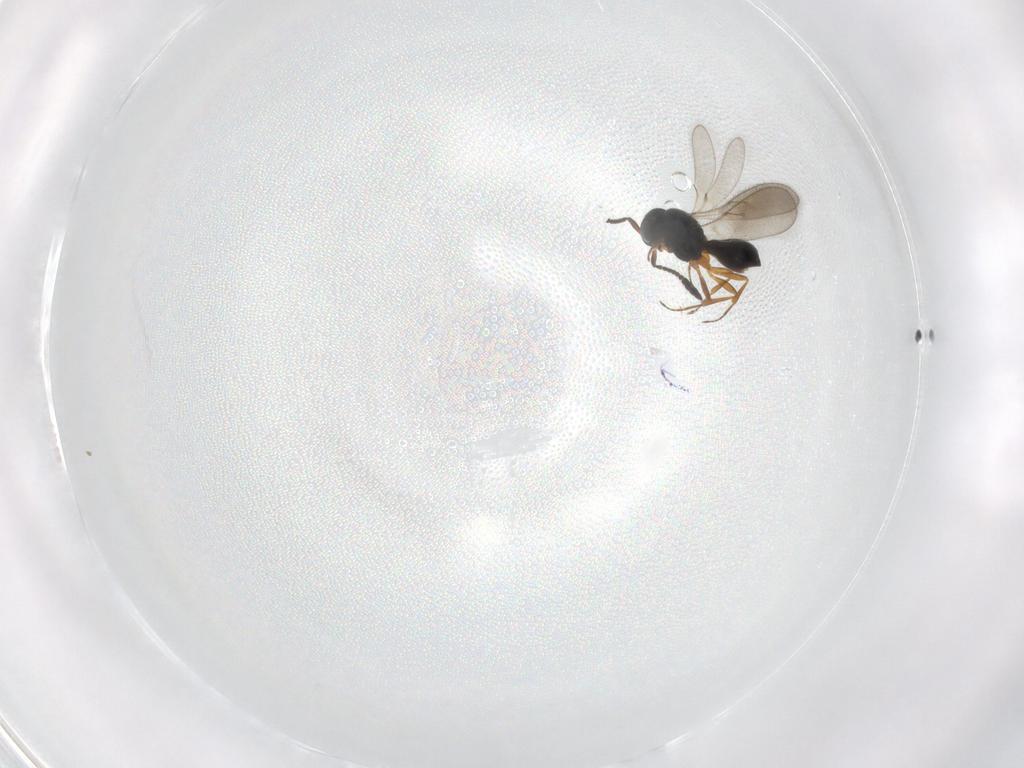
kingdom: Animalia
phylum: Arthropoda
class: Insecta
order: Hymenoptera
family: Scelionidae
